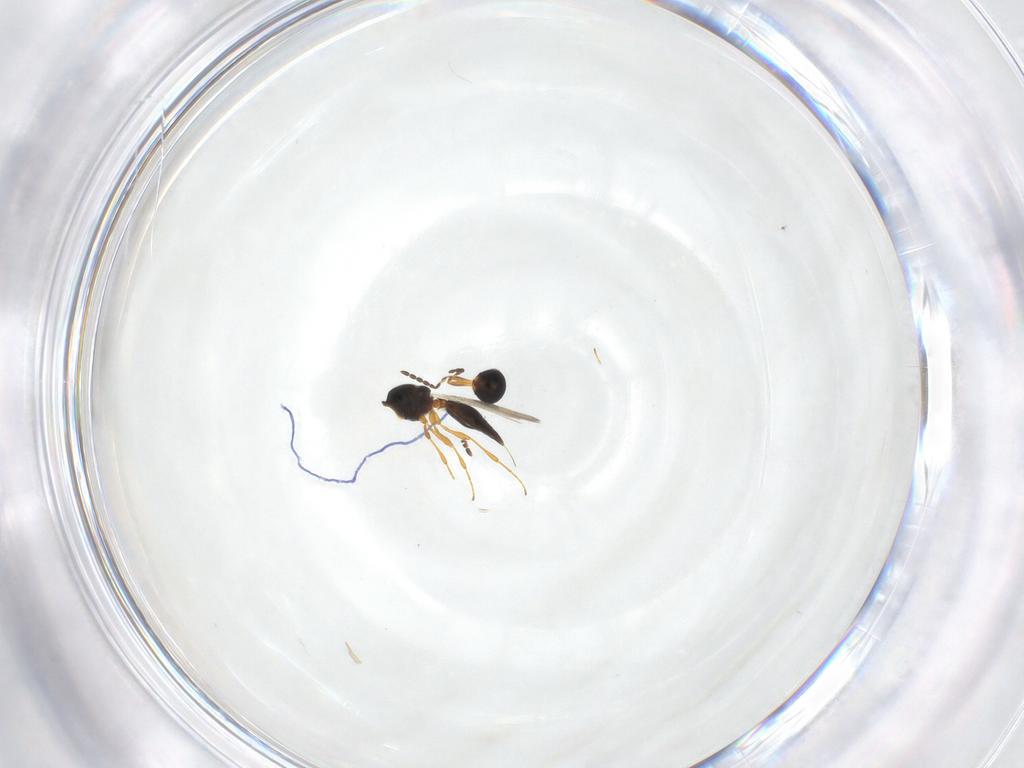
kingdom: Animalia
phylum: Arthropoda
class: Insecta
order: Hymenoptera
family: Platygastridae
